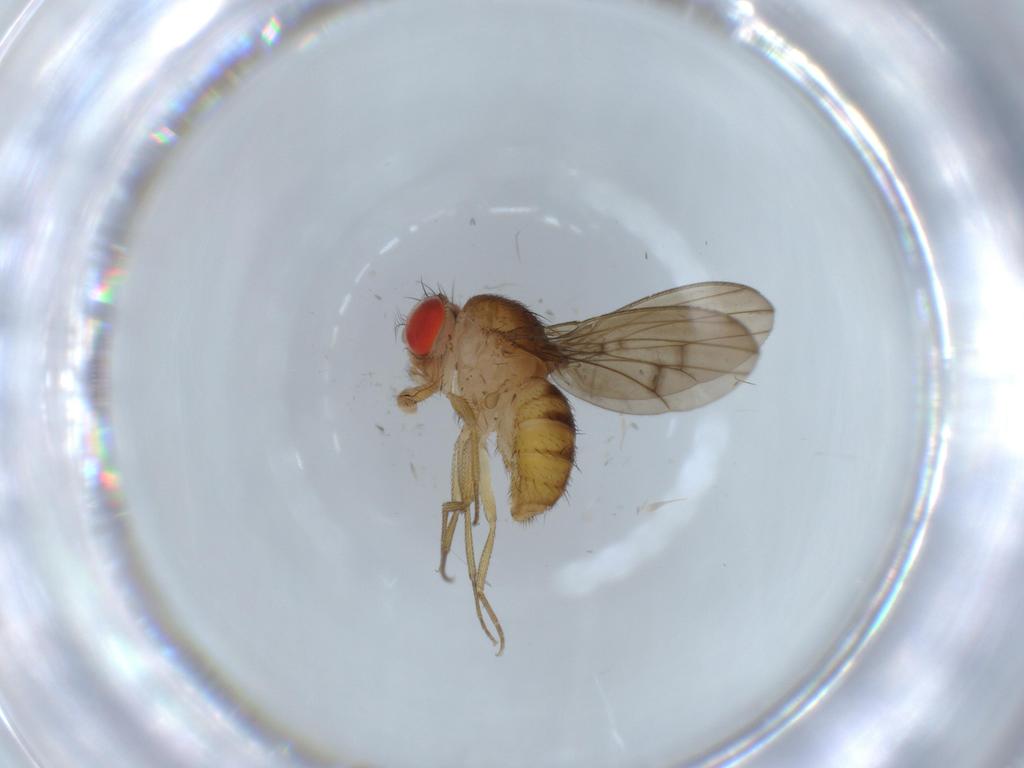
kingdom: Animalia
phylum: Arthropoda
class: Insecta
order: Diptera
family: Drosophilidae
